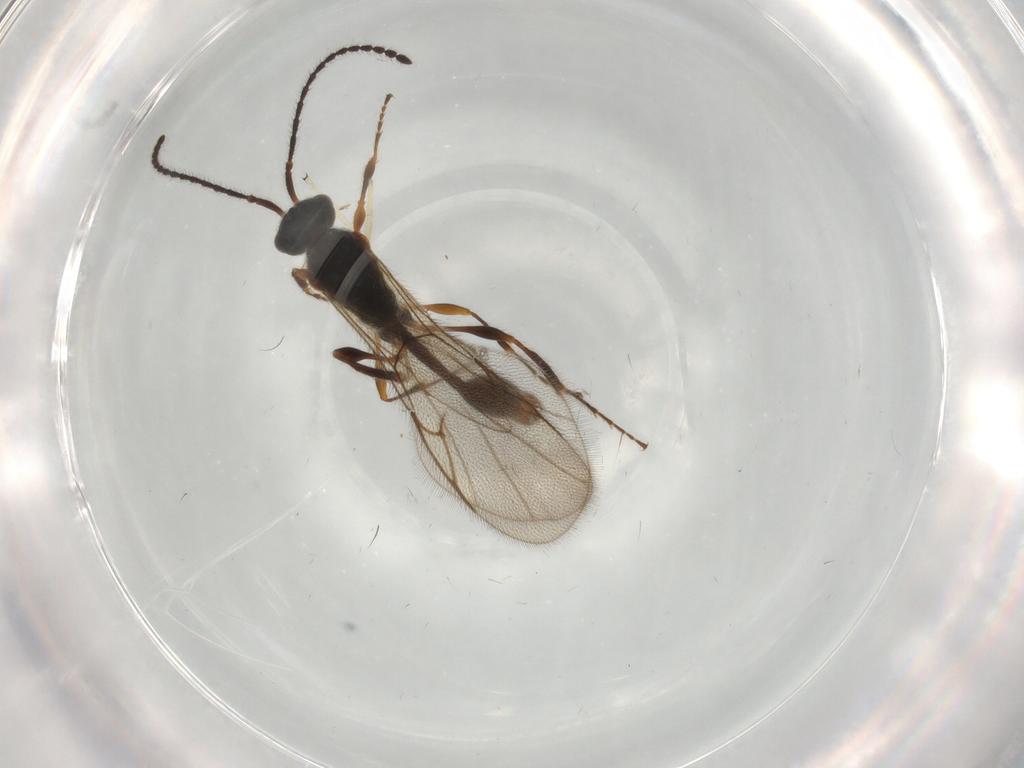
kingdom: Animalia
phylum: Arthropoda
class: Insecta
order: Hymenoptera
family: Diapriidae
